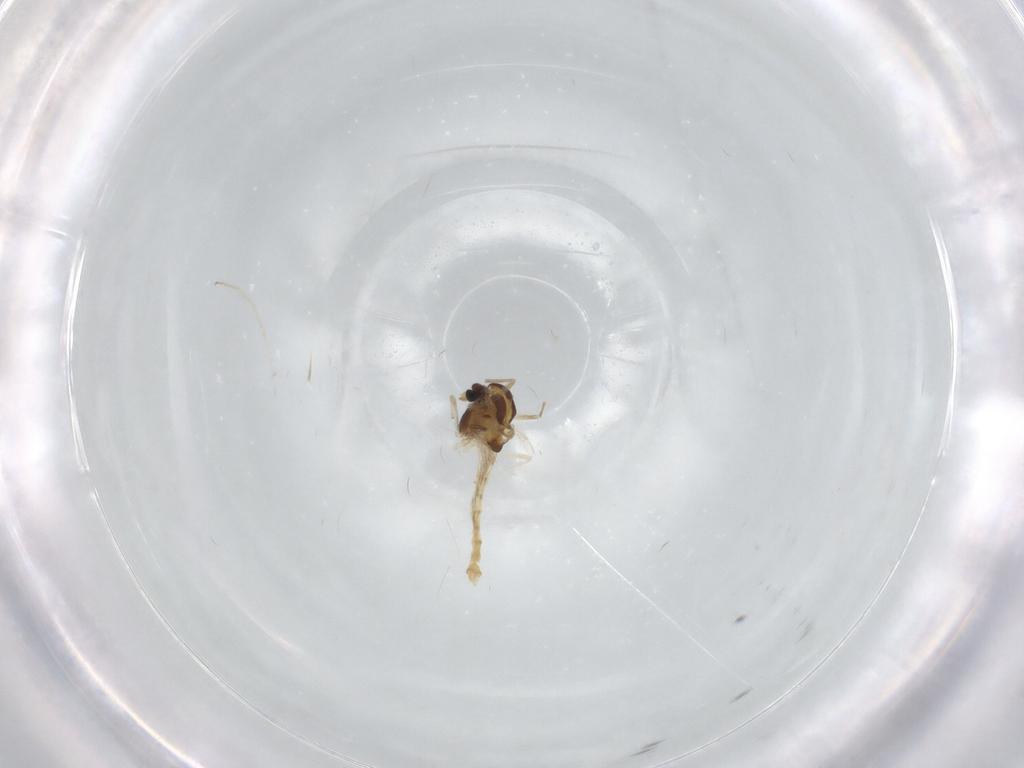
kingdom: Animalia
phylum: Arthropoda
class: Insecta
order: Diptera
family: Chironomidae
